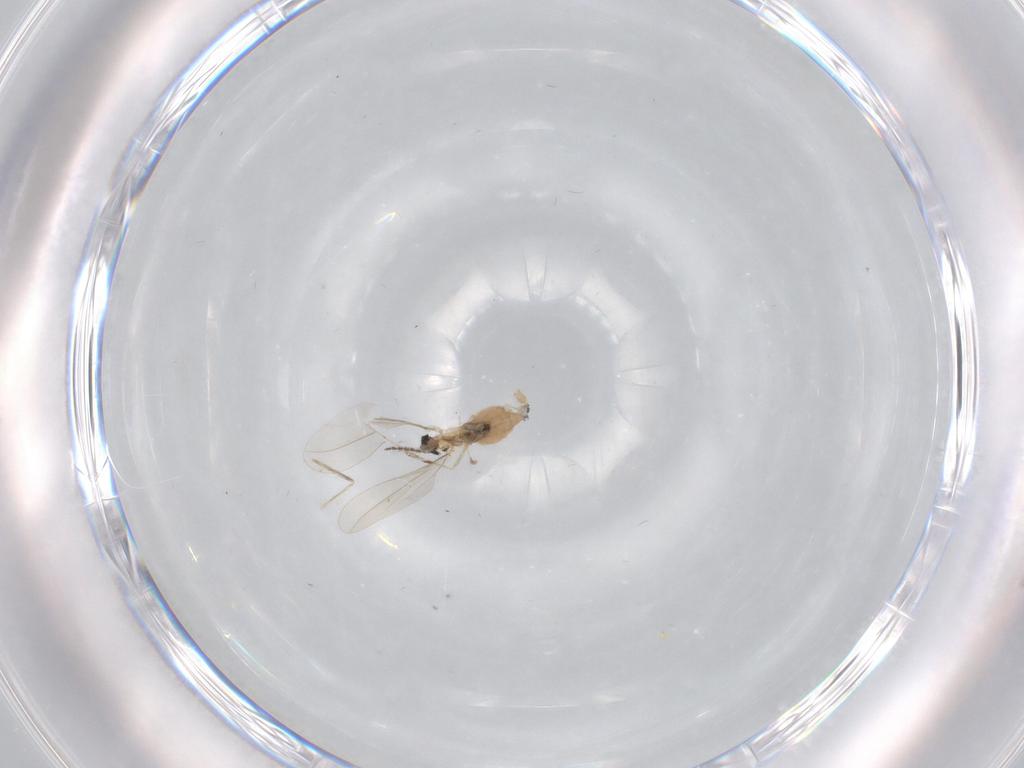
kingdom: Animalia
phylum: Arthropoda
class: Insecta
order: Diptera
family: Cecidomyiidae
